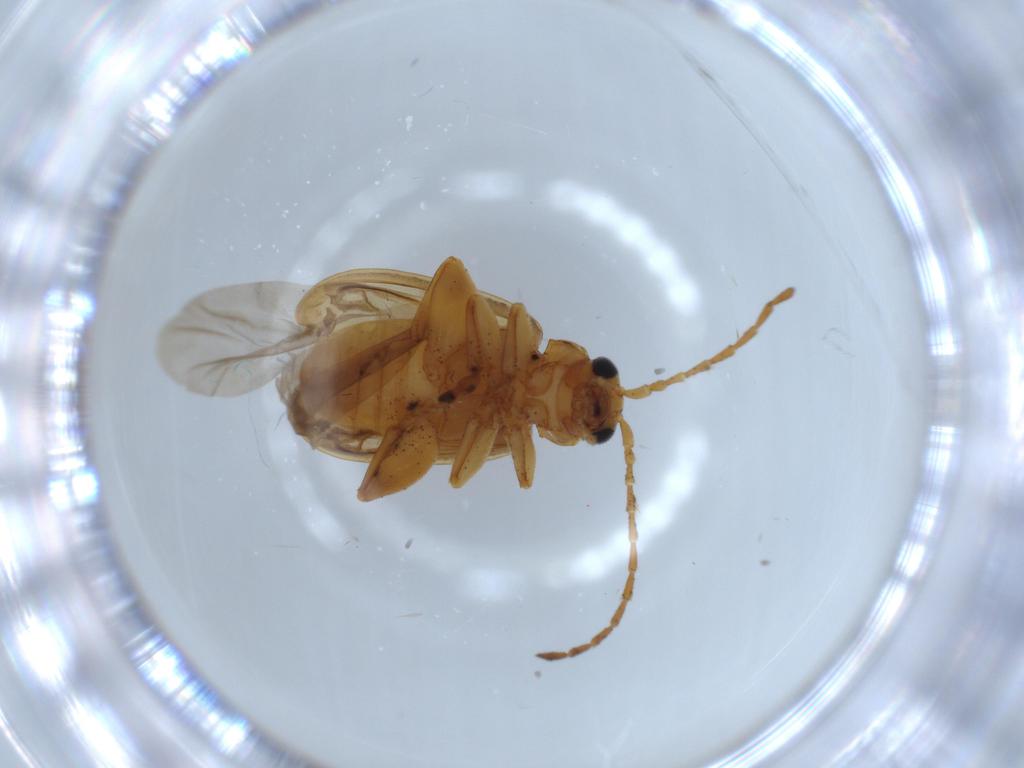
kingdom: Animalia
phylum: Arthropoda
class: Insecta
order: Coleoptera
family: Chrysomelidae
